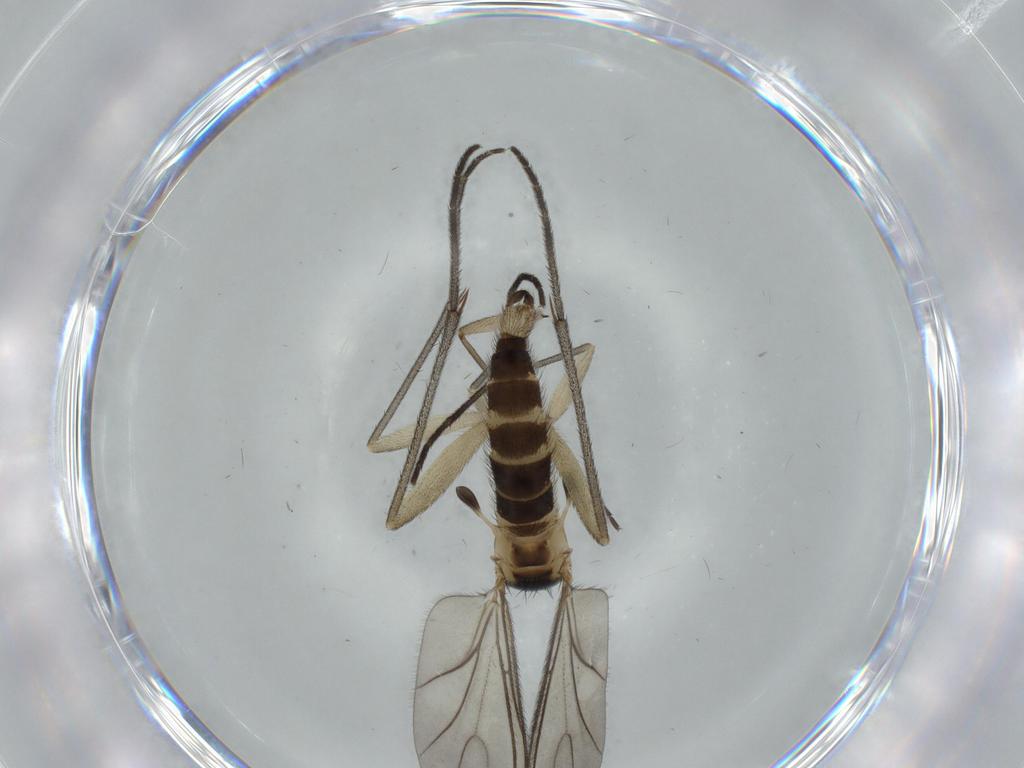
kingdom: Animalia
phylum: Arthropoda
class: Insecta
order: Diptera
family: Sciaridae
